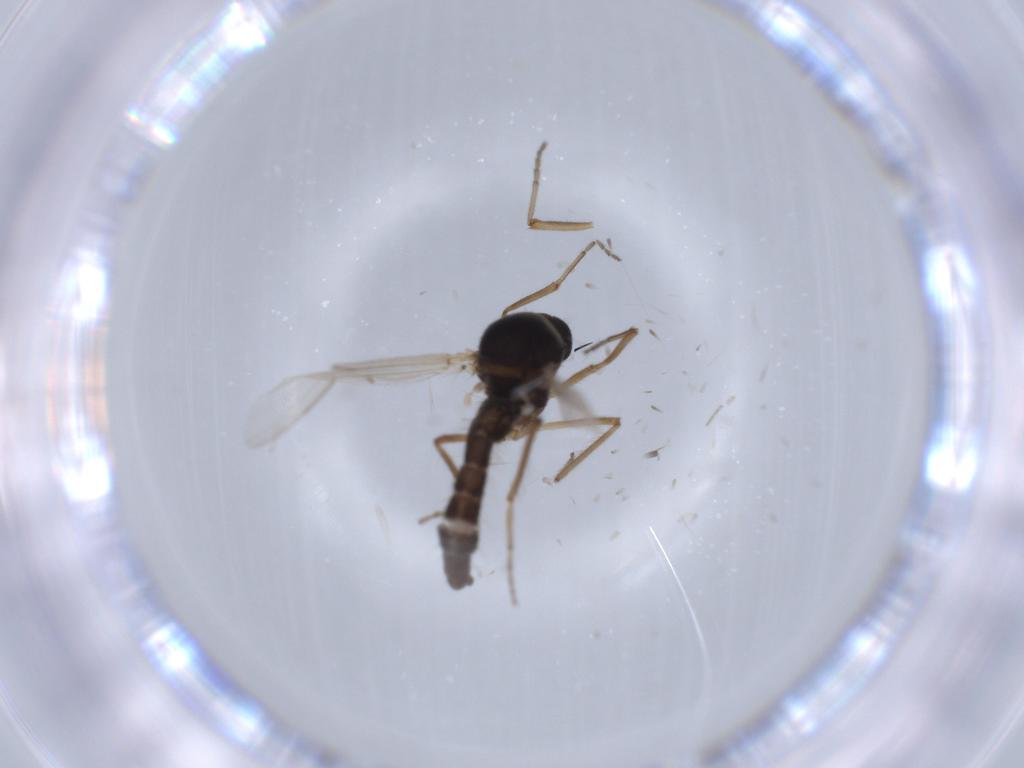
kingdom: Animalia
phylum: Arthropoda
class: Insecta
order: Diptera
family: Ceratopogonidae
